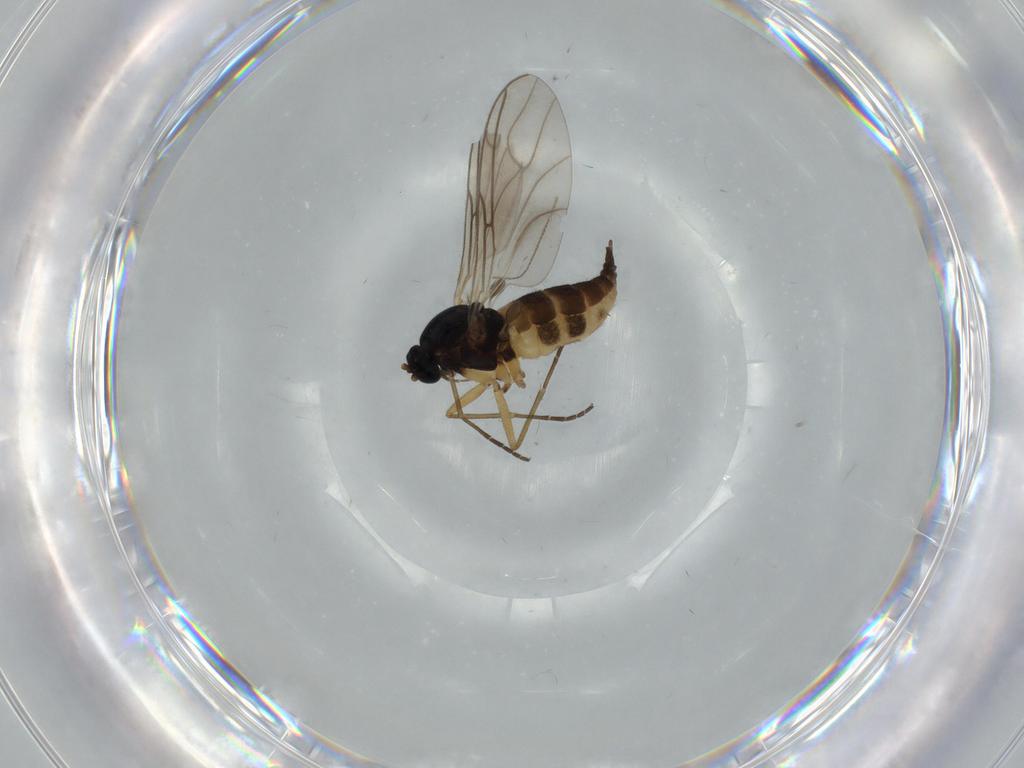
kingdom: Animalia
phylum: Arthropoda
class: Insecta
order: Diptera
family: Sciaridae
